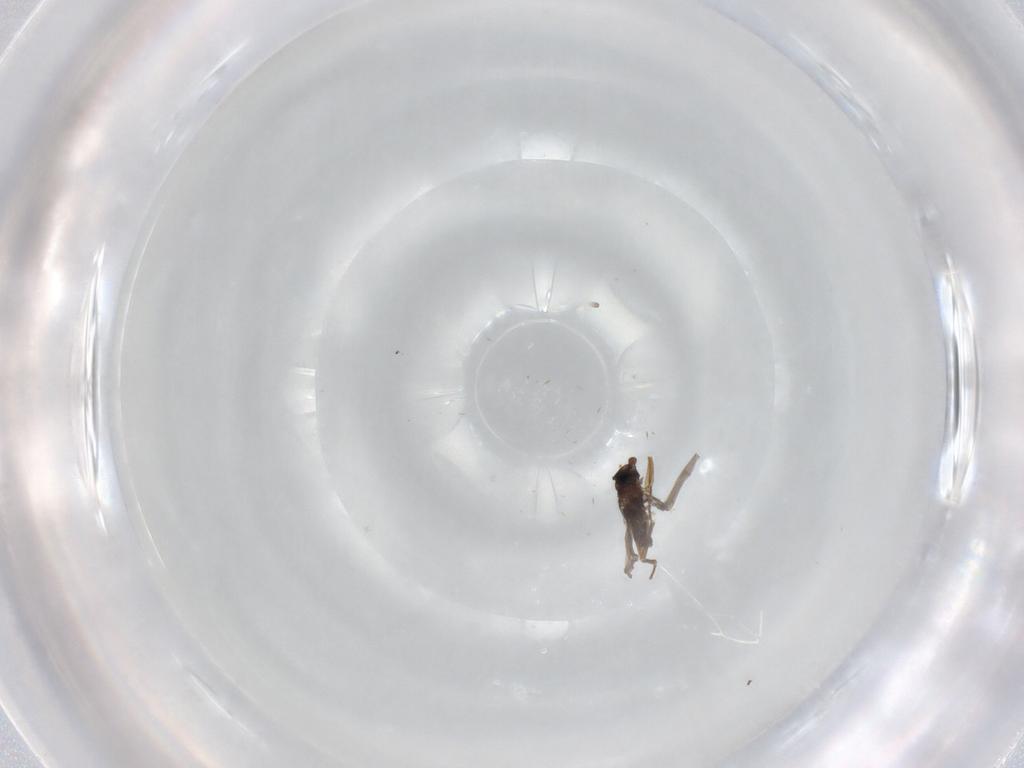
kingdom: Animalia
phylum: Arthropoda
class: Insecta
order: Diptera
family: Phoridae
